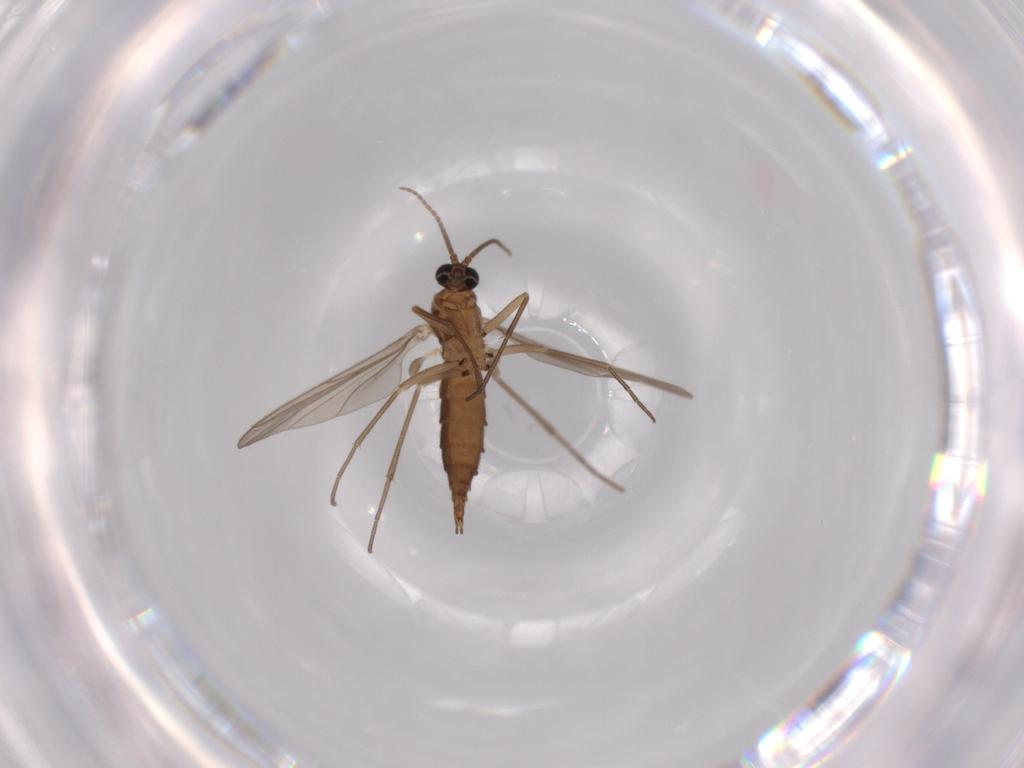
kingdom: Animalia
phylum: Arthropoda
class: Insecta
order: Diptera
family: Sciaridae
